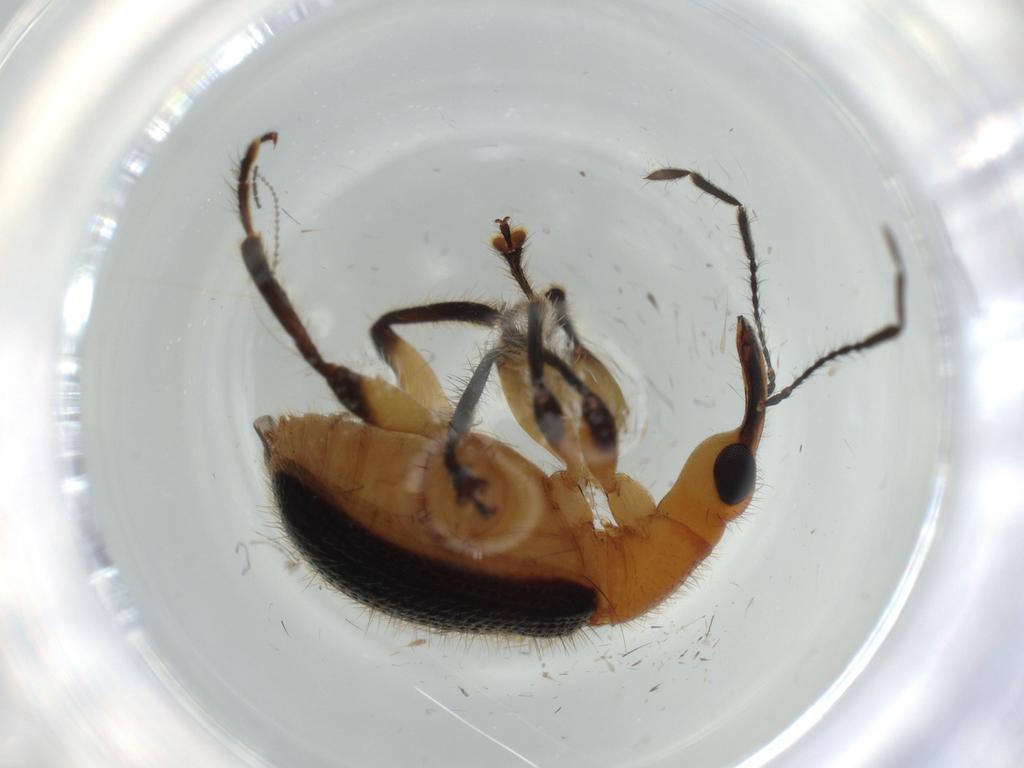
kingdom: Animalia
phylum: Arthropoda
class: Insecta
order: Coleoptera
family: Attelabidae
